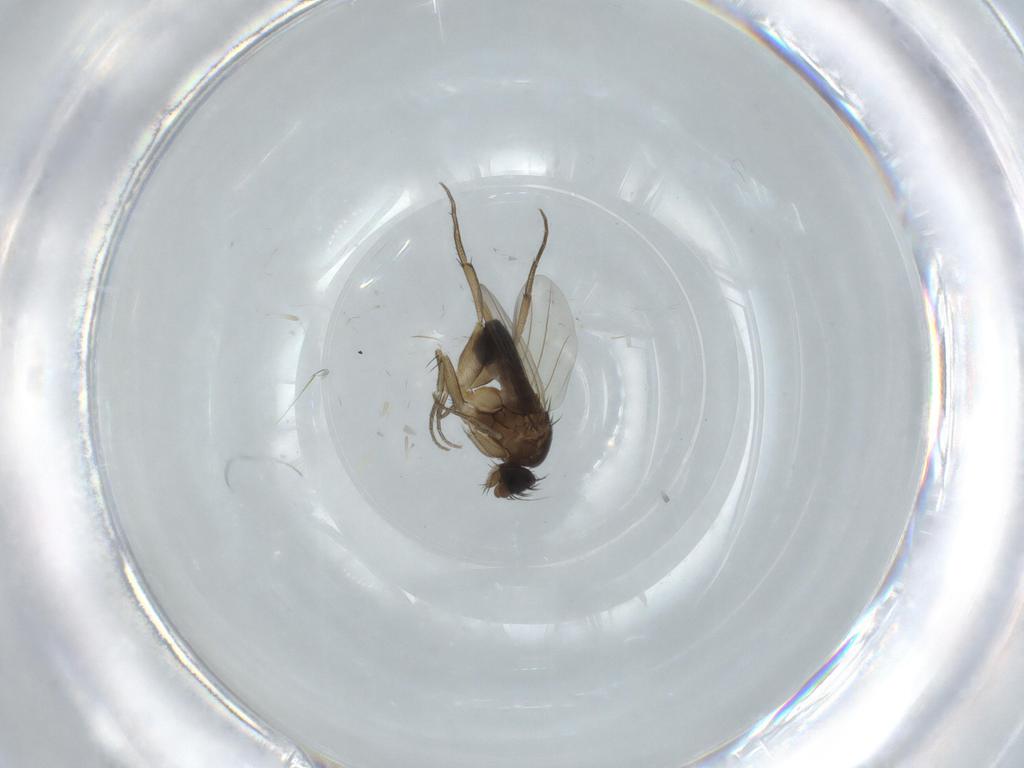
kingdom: Animalia
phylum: Arthropoda
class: Insecta
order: Diptera
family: Phoridae
